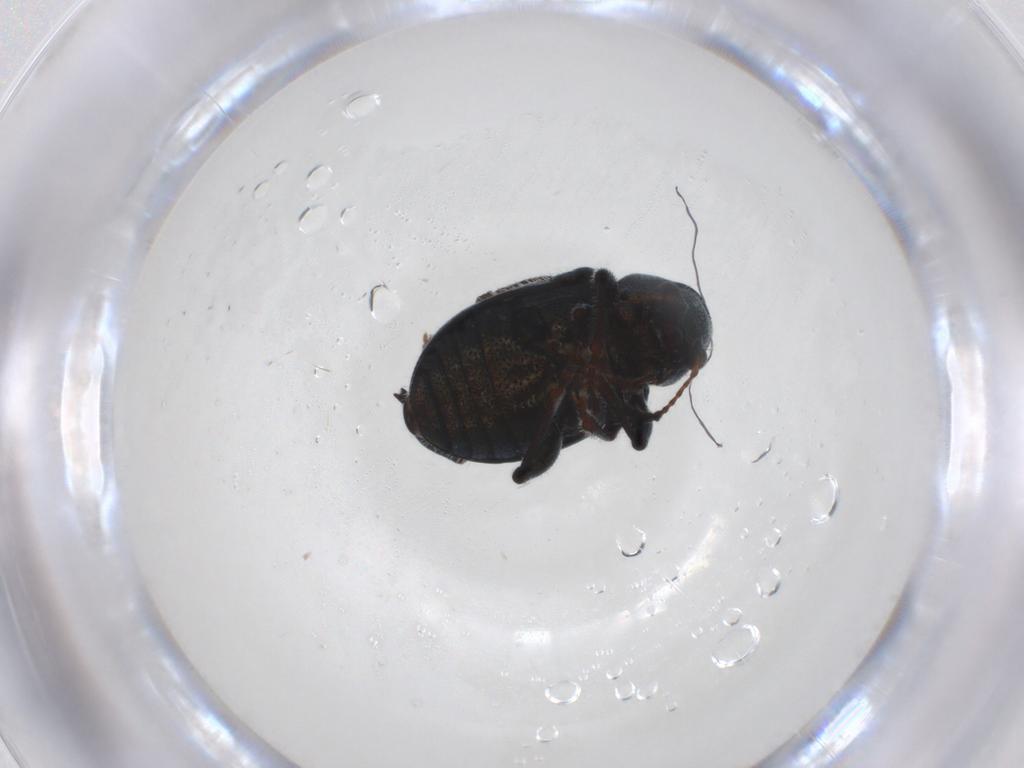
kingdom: Animalia
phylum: Arthropoda
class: Insecta
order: Coleoptera
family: Chrysomelidae
